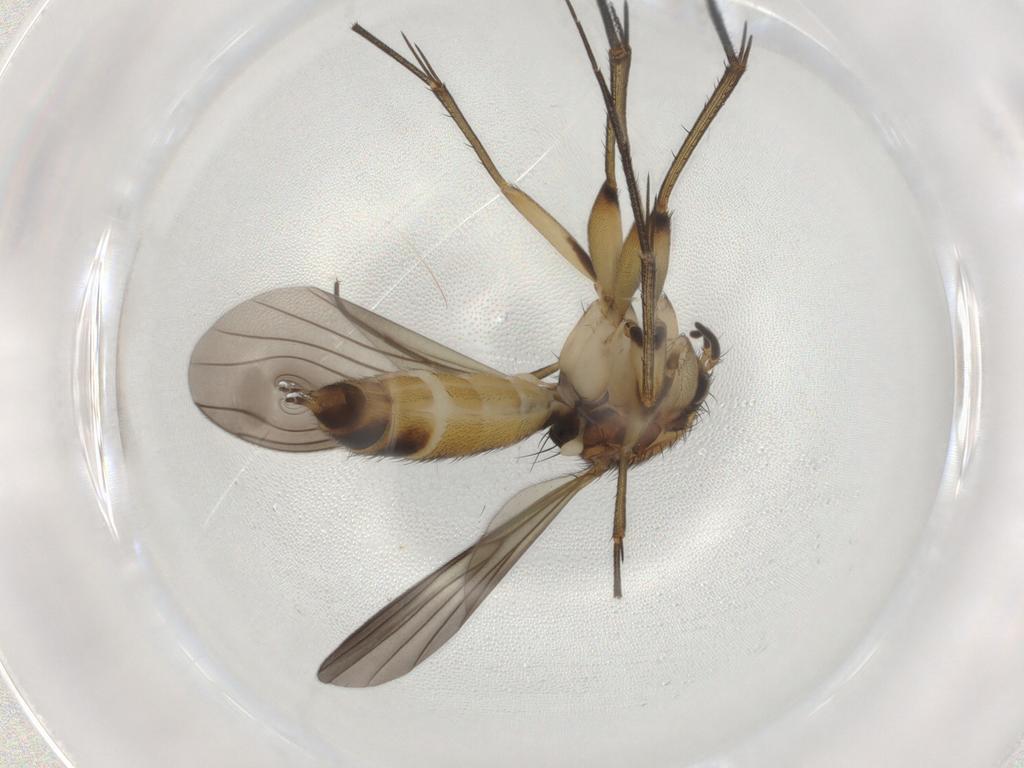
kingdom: Animalia
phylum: Arthropoda
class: Insecta
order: Diptera
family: Mycetophilidae
